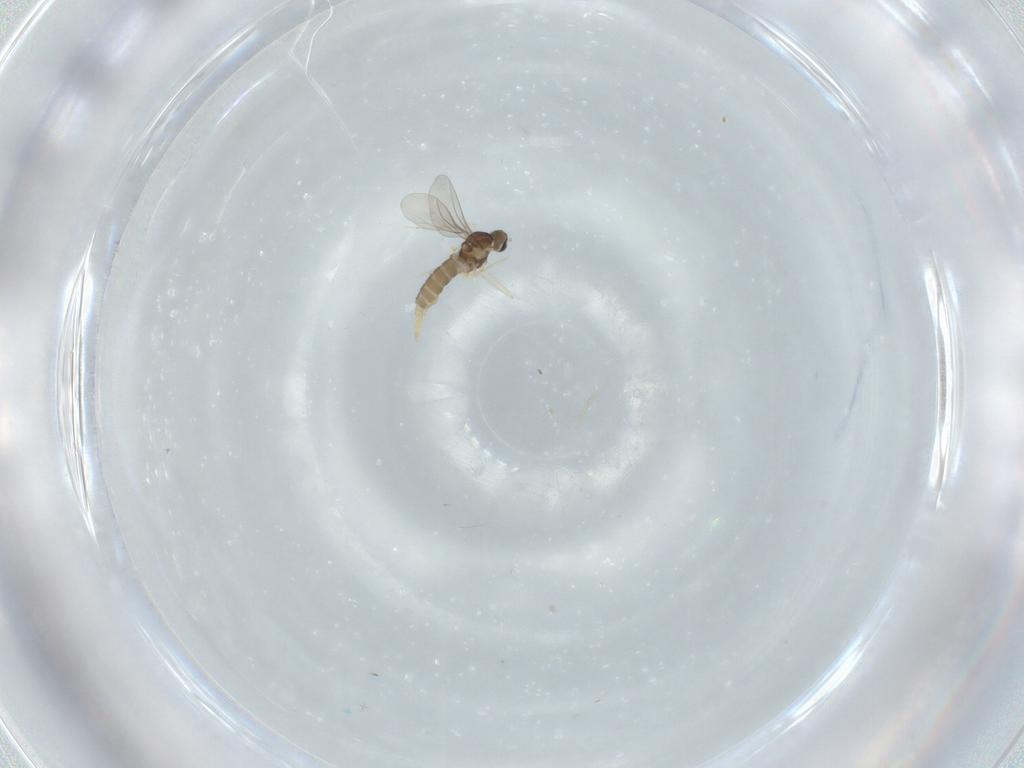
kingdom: Animalia
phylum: Arthropoda
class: Insecta
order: Diptera
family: Cecidomyiidae
